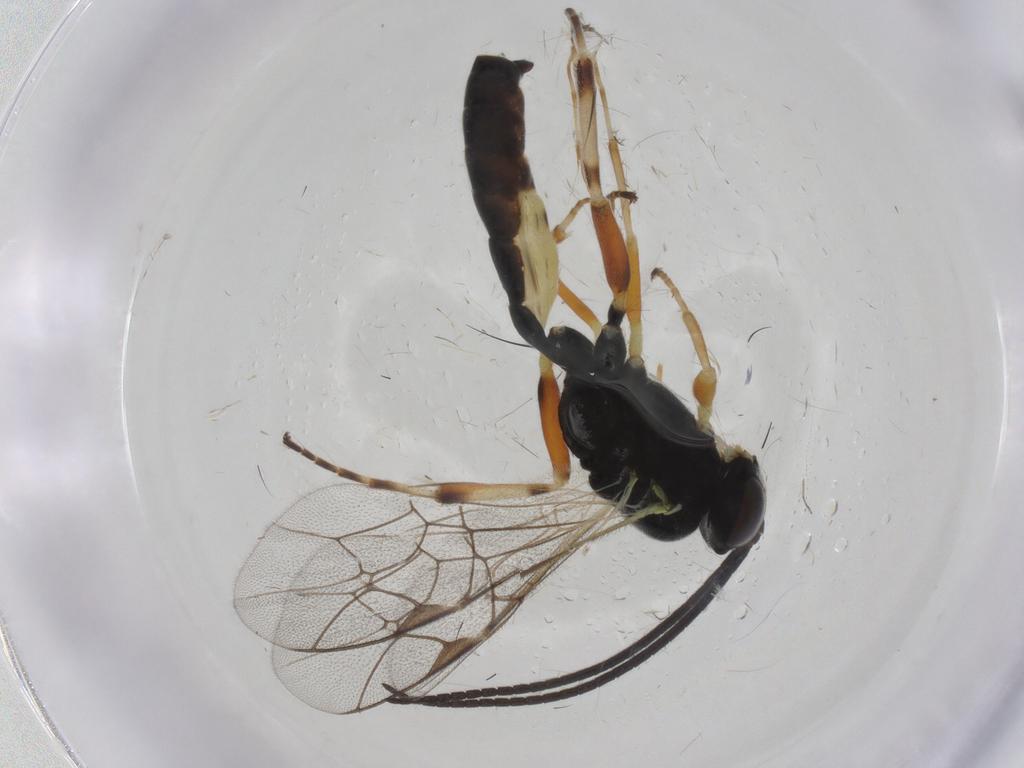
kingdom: Animalia
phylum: Arthropoda
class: Insecta
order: Hymenoptera
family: Ichneumonidae
